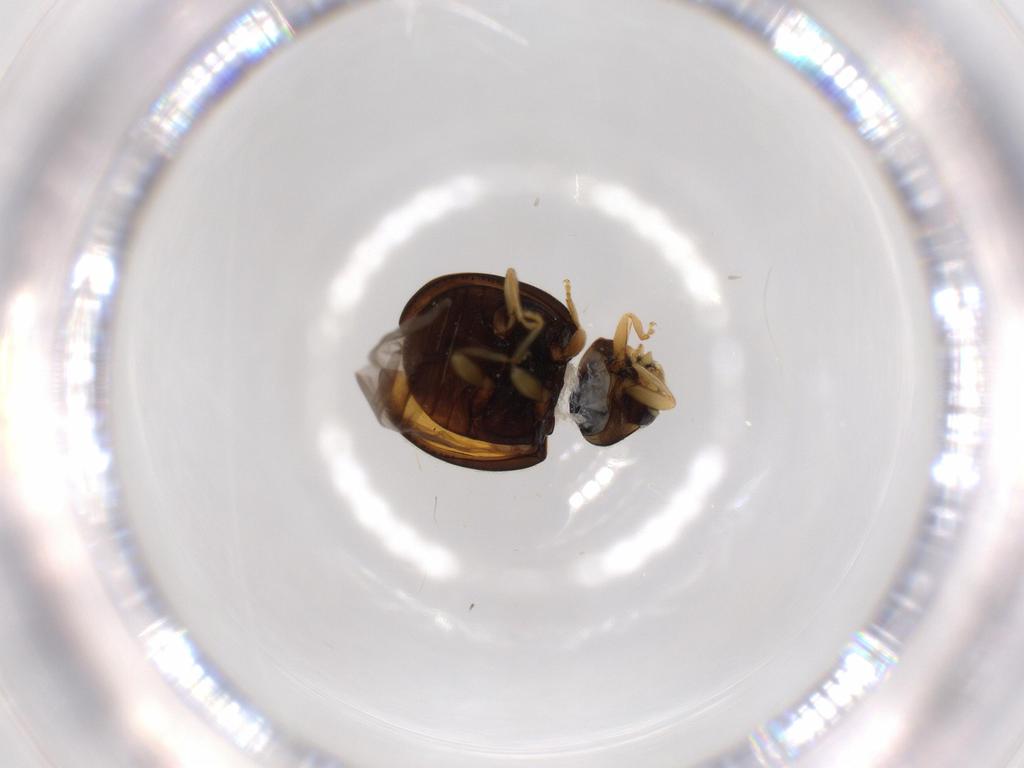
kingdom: Animalia
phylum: Arthropoda
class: Insecta
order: Coleoptera
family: Coccinellidae
